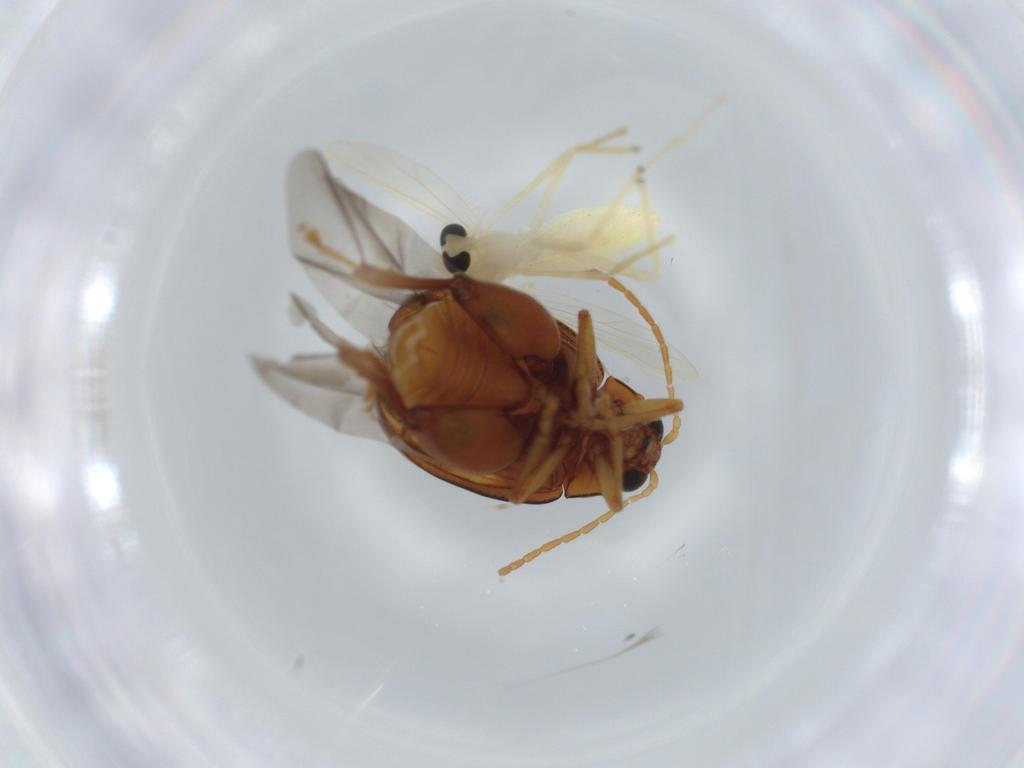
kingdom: Animalia
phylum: Arthropoda
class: Insecta
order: Diptera
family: Chironomidae
